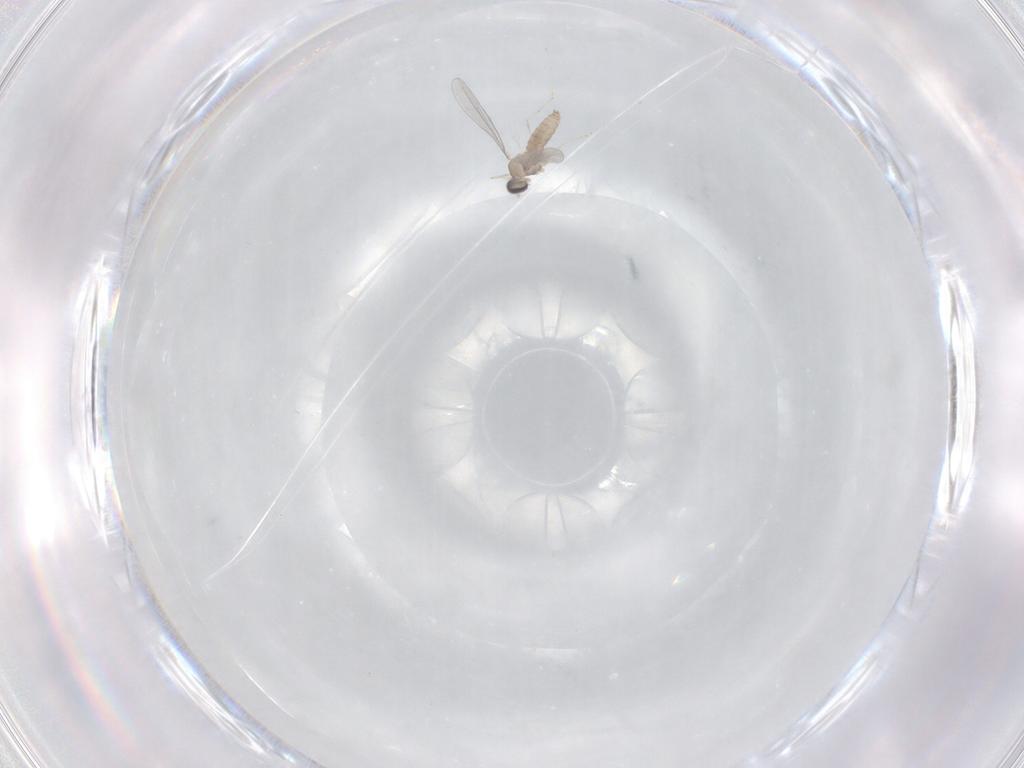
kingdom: Animalia
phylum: Arthropoda
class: Insecta
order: Diptera
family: Cecidomyiidae
